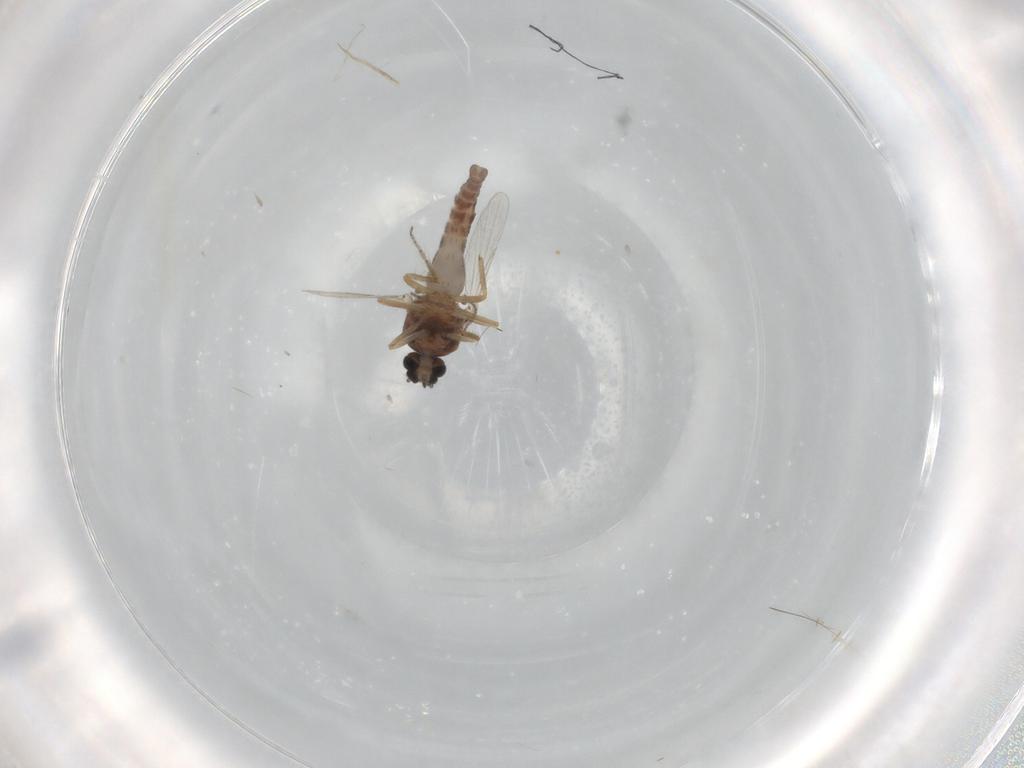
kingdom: Animalia
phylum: Arthropoda
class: Insecta
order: Diptera
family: Ceratopogonidae
